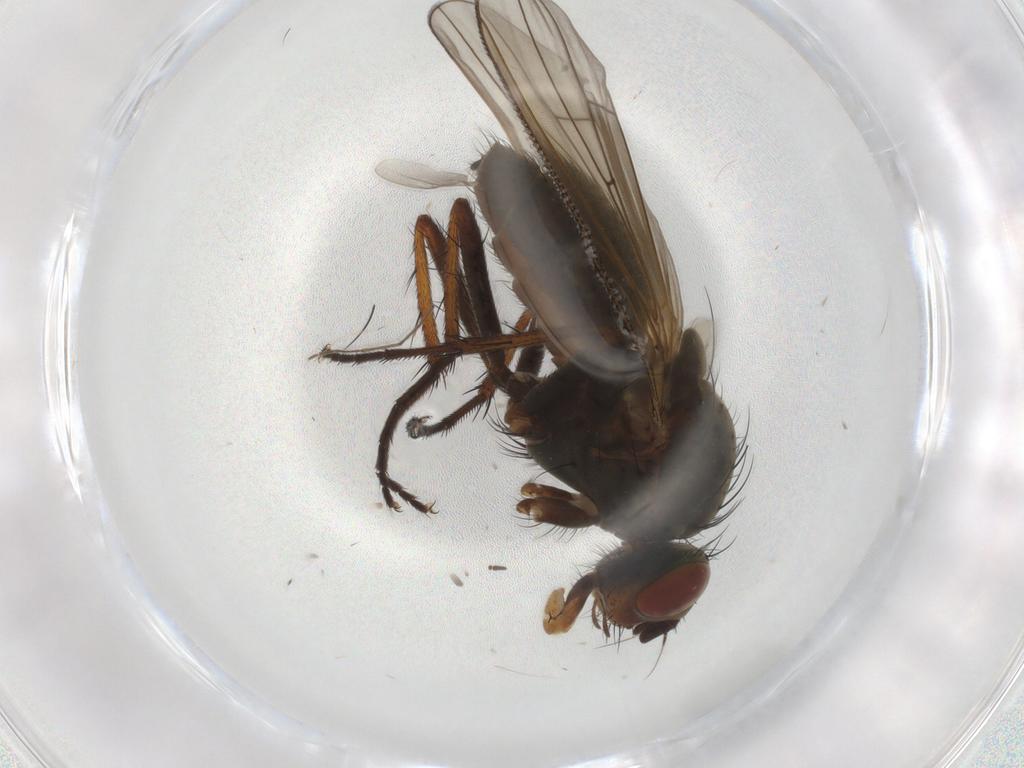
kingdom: Animalia
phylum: Arthropoda
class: Insecta
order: Diptera
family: Anthomyiidae
